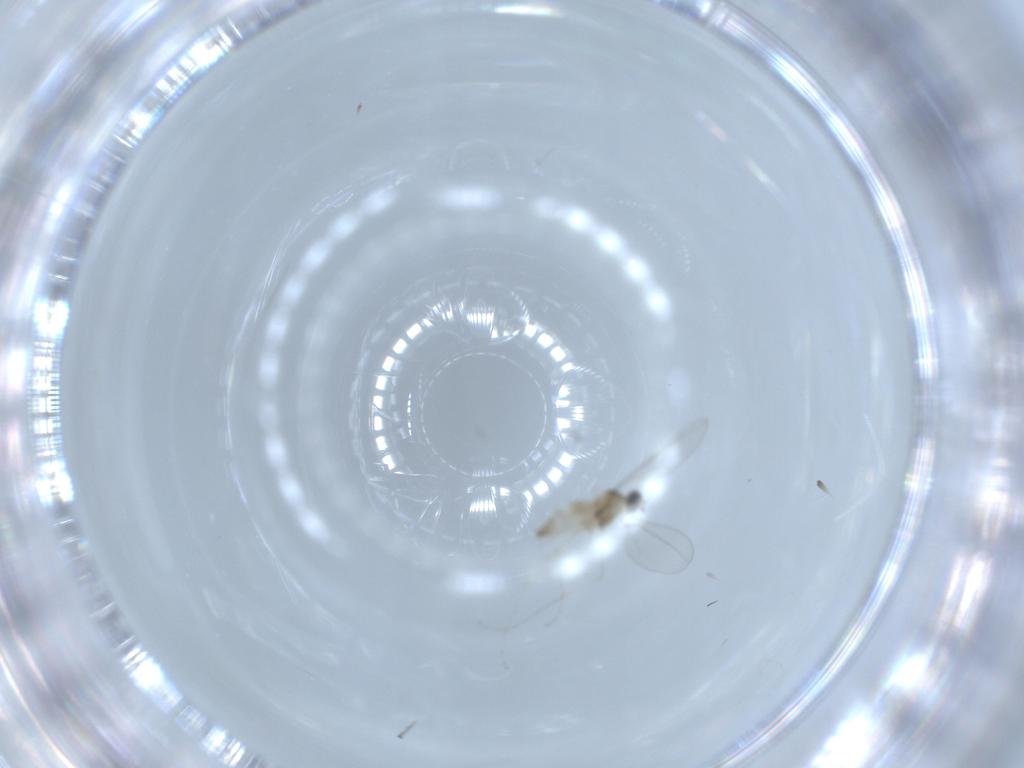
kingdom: Animalia
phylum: Arthropoda
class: Insecta
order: Diptera
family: Cecidomyiidae
